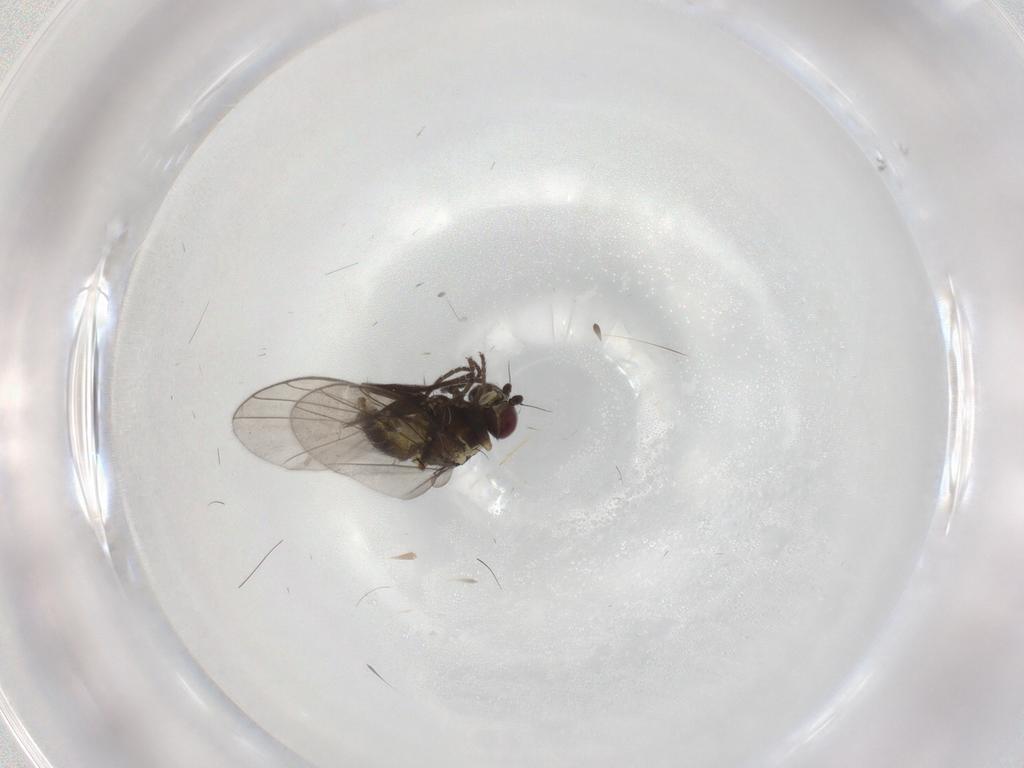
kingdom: Animalia
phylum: Arthropoda
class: Insecta
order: Diptera
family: Agromyzidae
